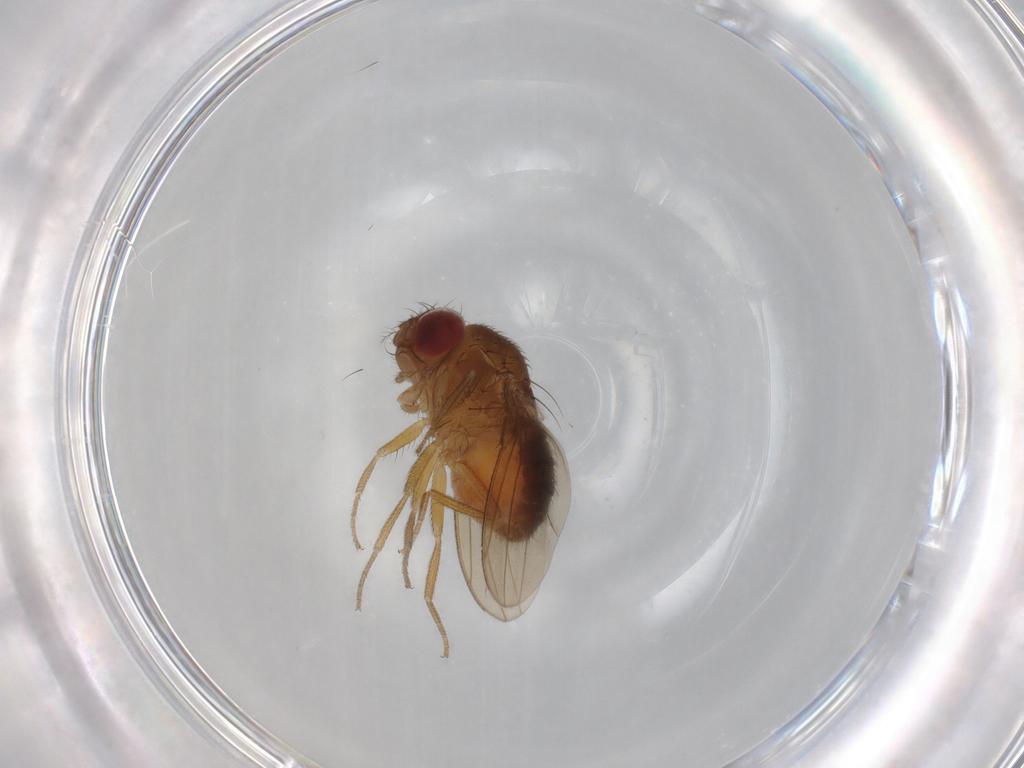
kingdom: Animalia
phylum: Arthropoda
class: Insecta
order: Diptera
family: Drosophilidae
